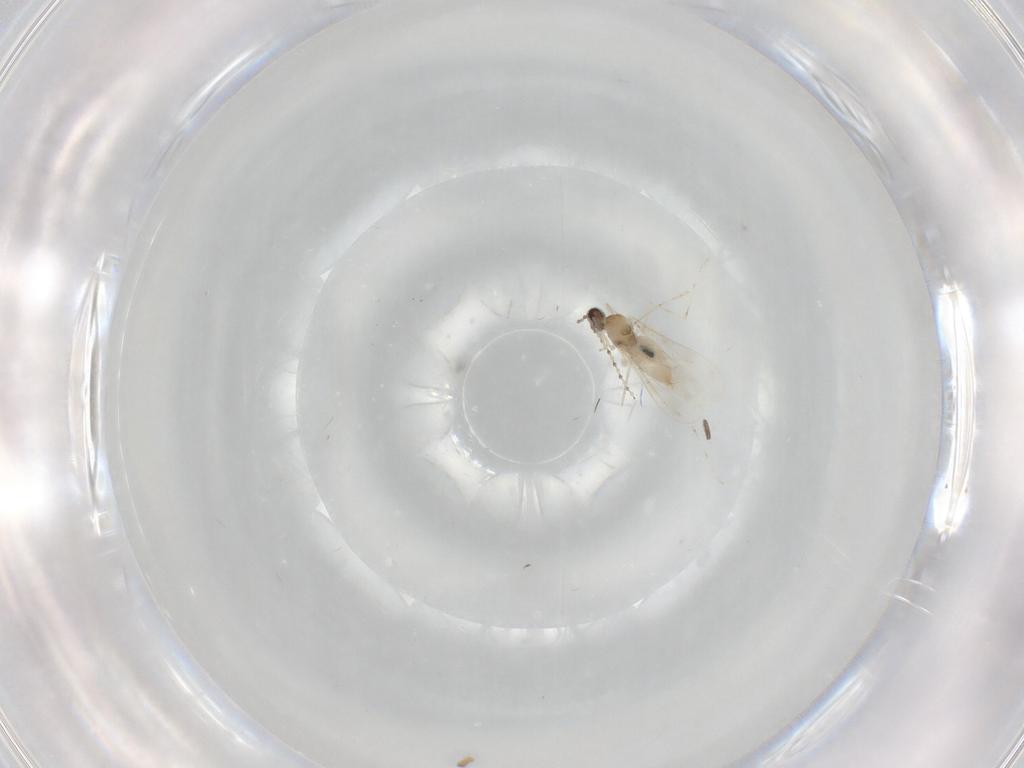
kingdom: Animalia
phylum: Arthropoda
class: Insecta
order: Diptera
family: Cecidomyiidae
